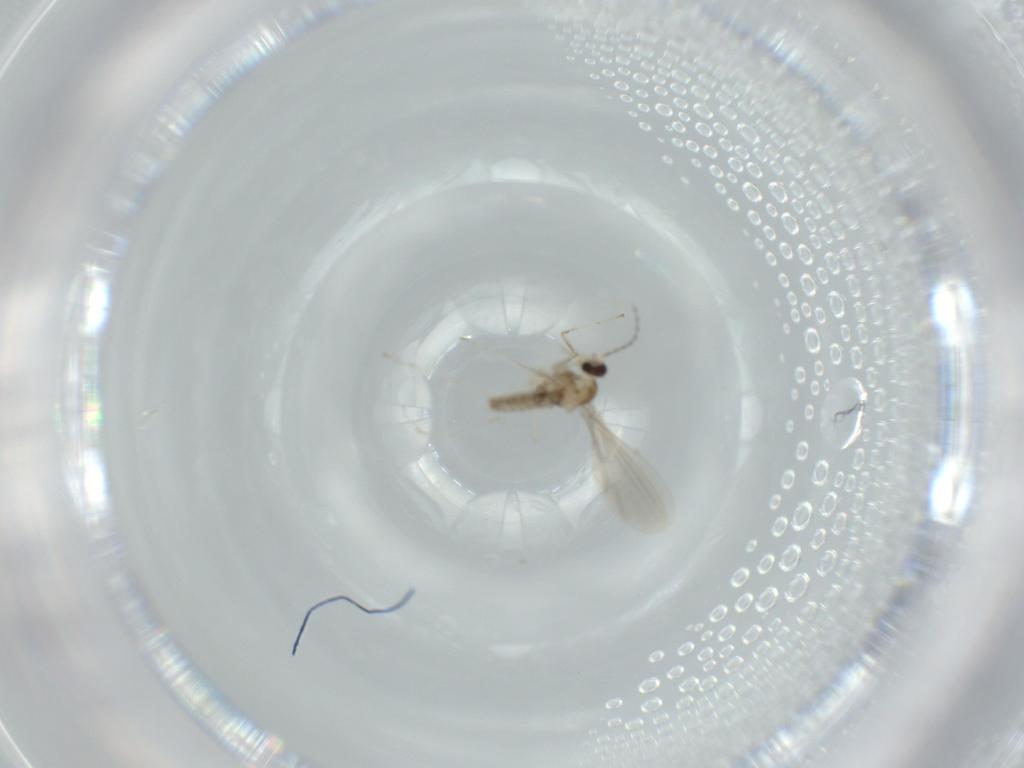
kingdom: Animalia
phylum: Arthropoda
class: Insecta
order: Diptera
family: Cecidomyiidae
